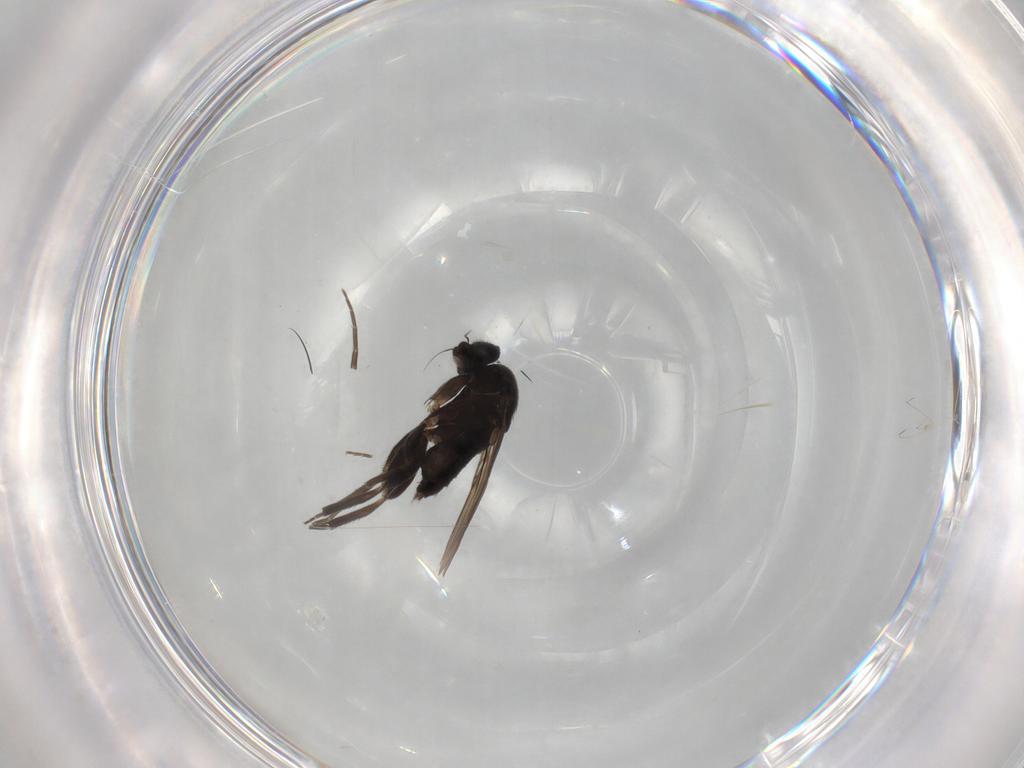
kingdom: Animalia
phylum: Arthropoda
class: Insecta
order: Diptera
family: Phoridae
